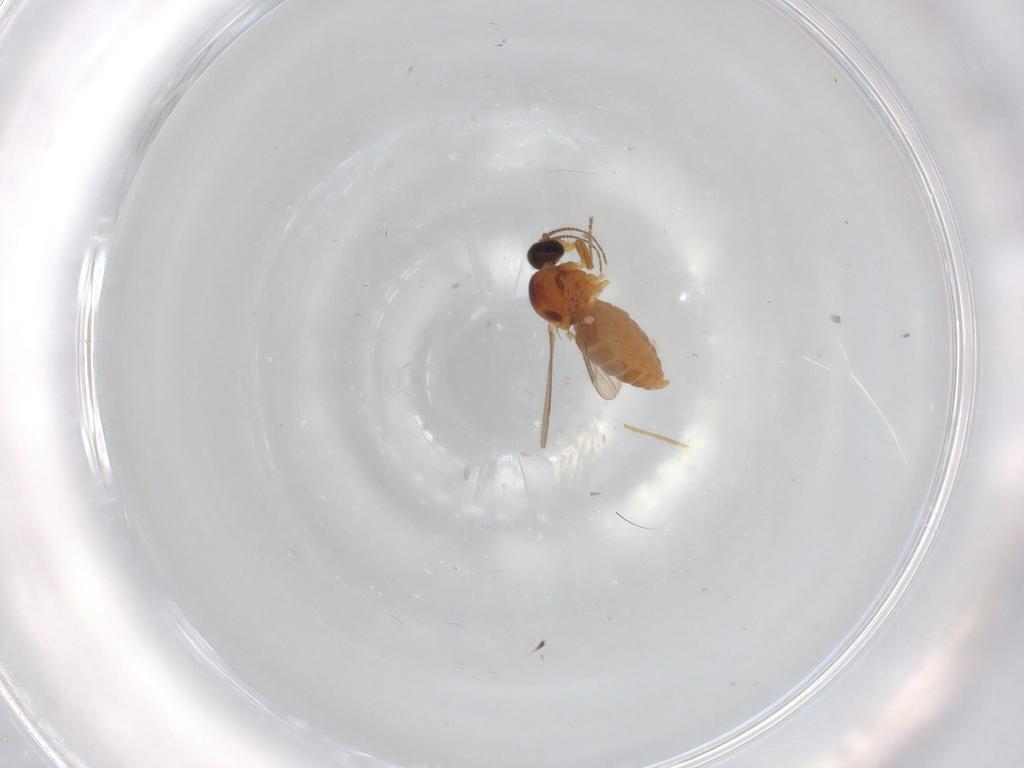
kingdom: Animalia
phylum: Arthropoda
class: Insecta
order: Diptera
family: Ceratopogonidae
